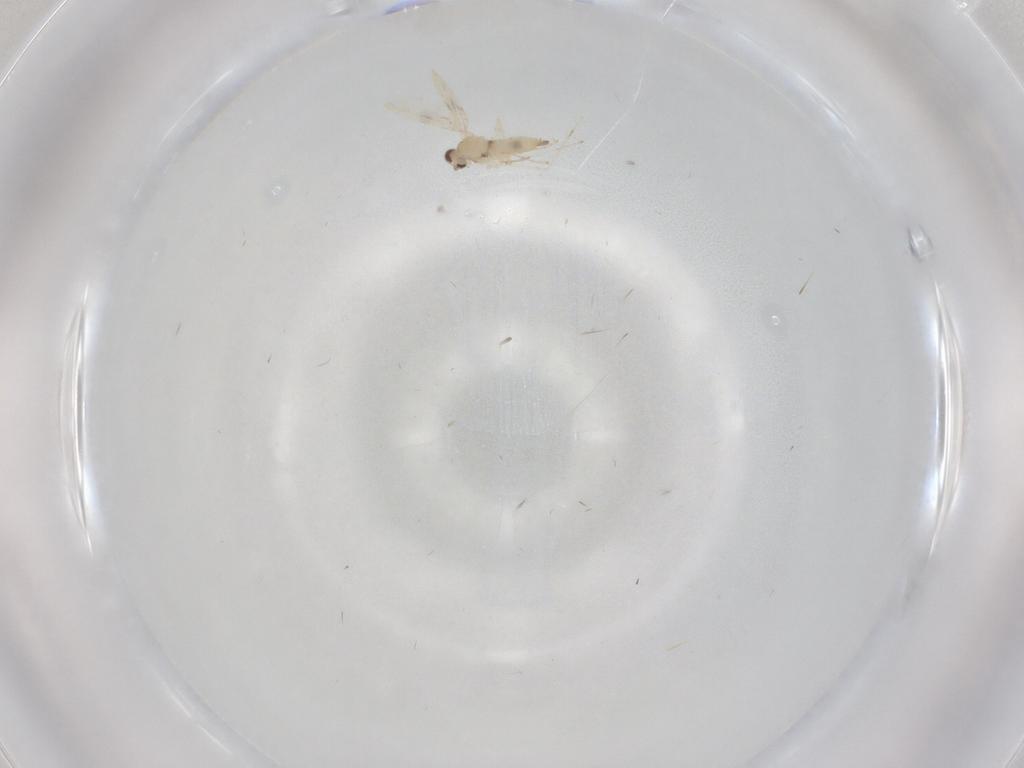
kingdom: Animalia
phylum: Arthropoda
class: Insecta
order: Diptera
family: Cecidomyiidae
